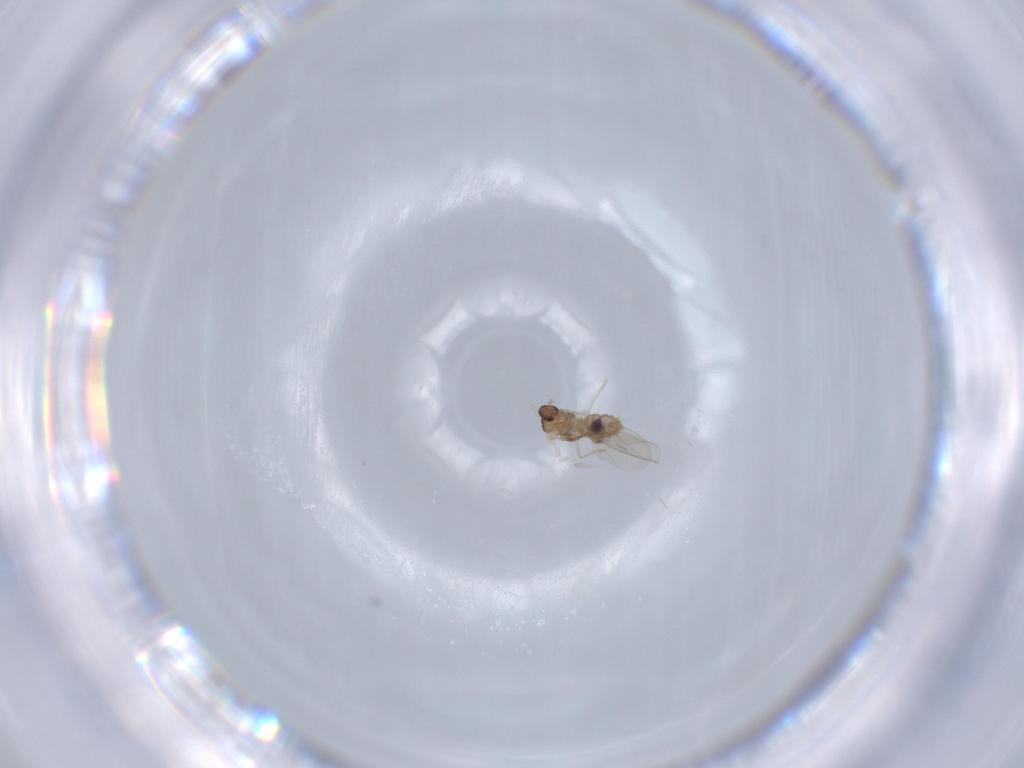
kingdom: Animalia
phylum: Arthropoda
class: Insecta
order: Diptera
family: Cecidomyiidae
